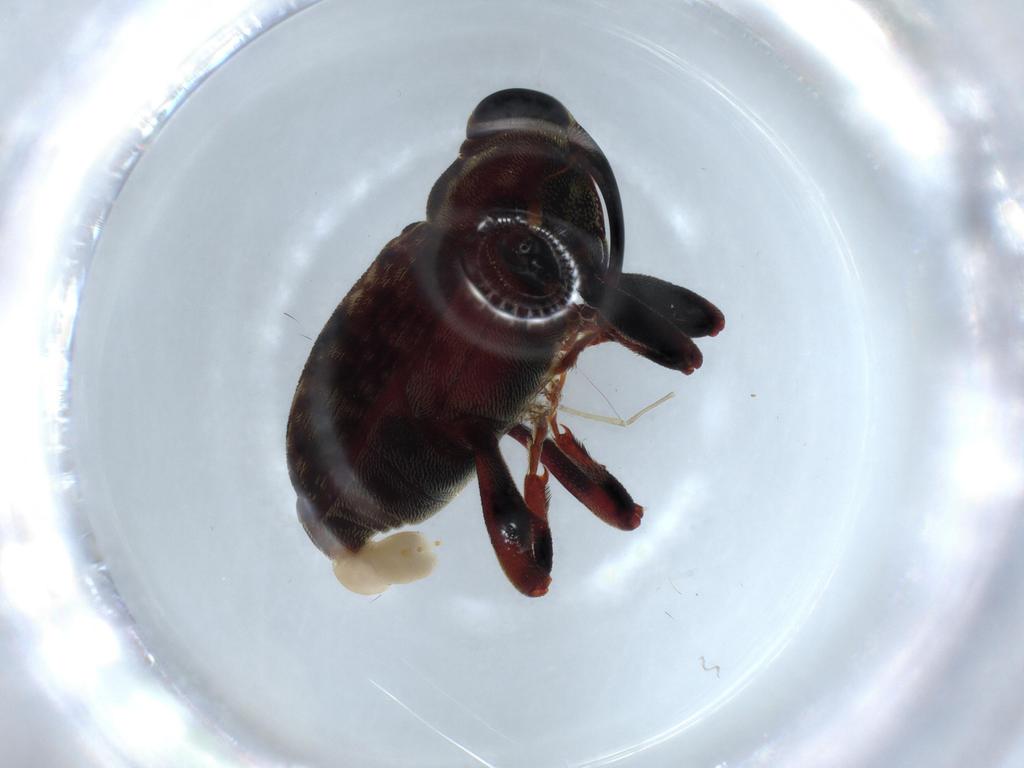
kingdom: Animalia
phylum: Arthropoda
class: Insecta
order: Coleoptera
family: Curculionidae
